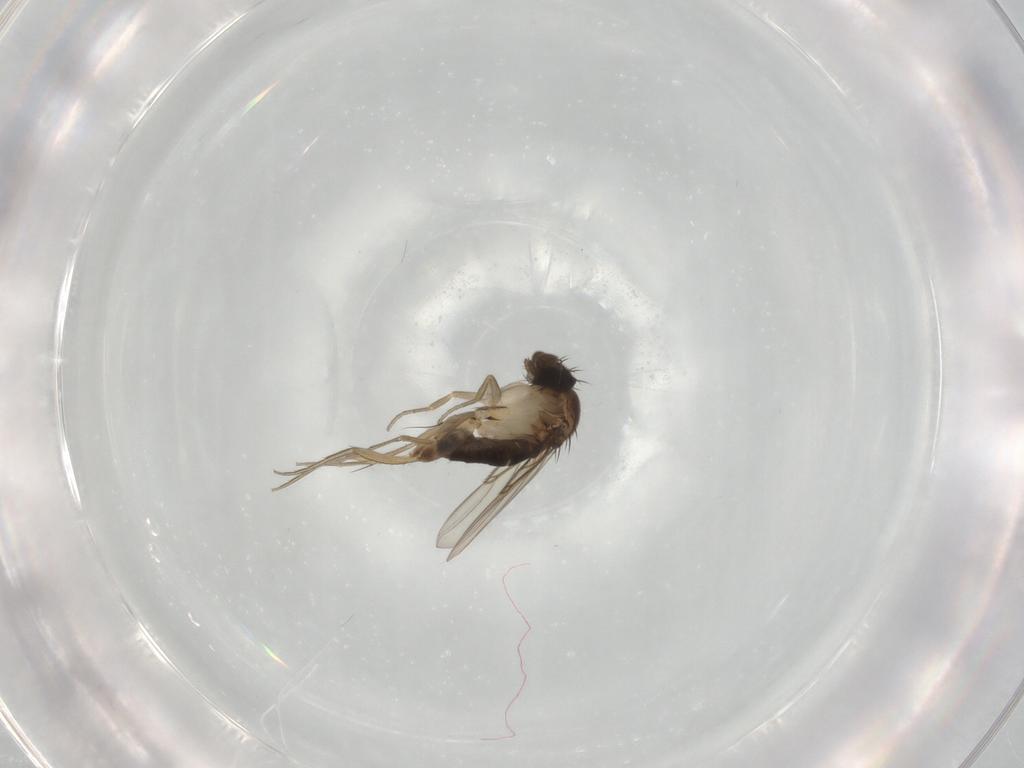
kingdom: Animalia
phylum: Arthropoda
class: Insecta
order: Diptera
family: Phoridae
